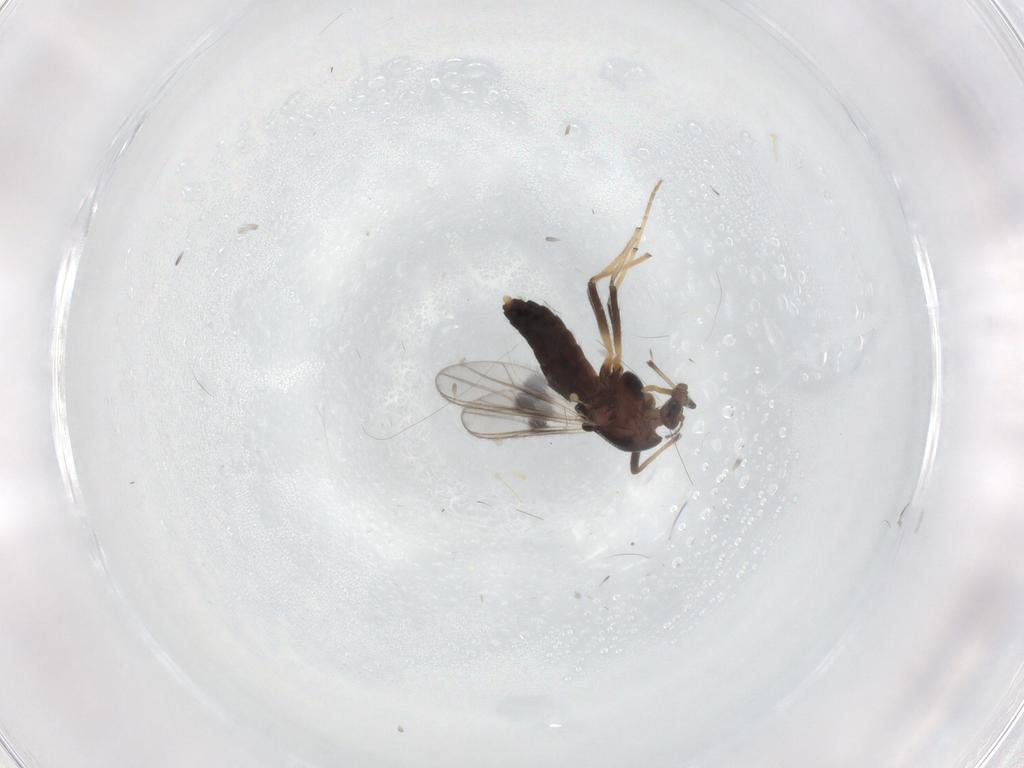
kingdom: Animalia
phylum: Arthropoda
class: Insecta
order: Diptera
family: Chironomidae
